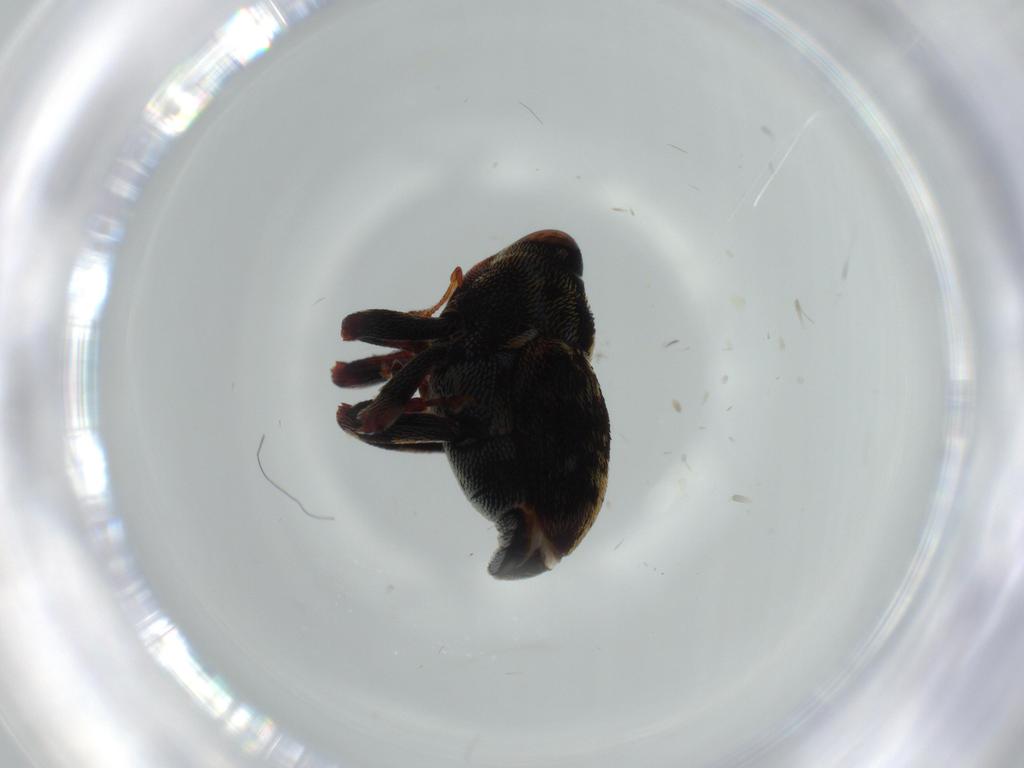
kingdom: Animalia
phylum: Arthropoda
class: Insecta
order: Coleoptera
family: Curculionidae
